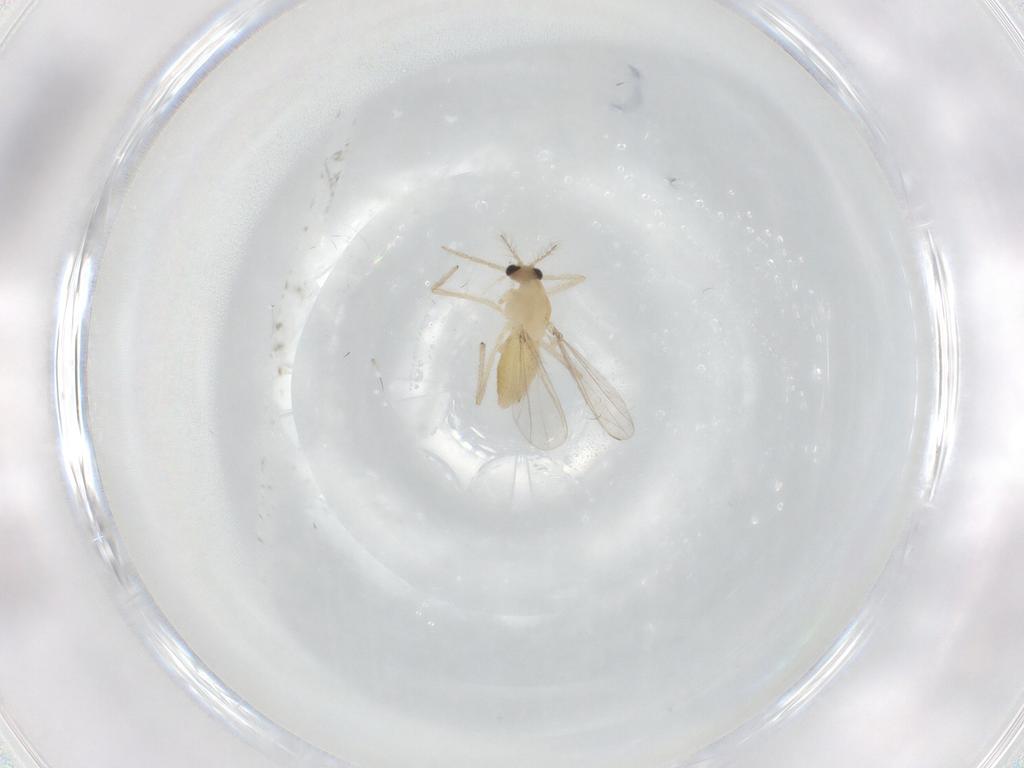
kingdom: Animalia
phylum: Arthropoda
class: Insecta
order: Diptera
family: Chironomidae
